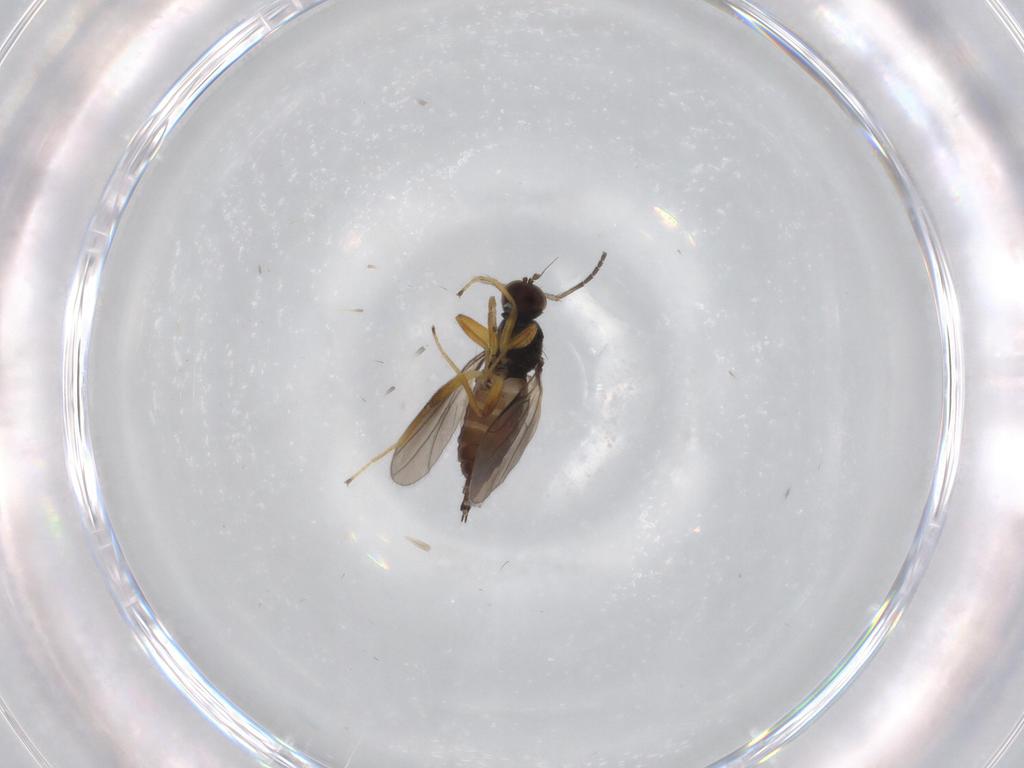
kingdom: Animalia
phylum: Arthropoda
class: Insecta
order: Diptera
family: Hybotidae
